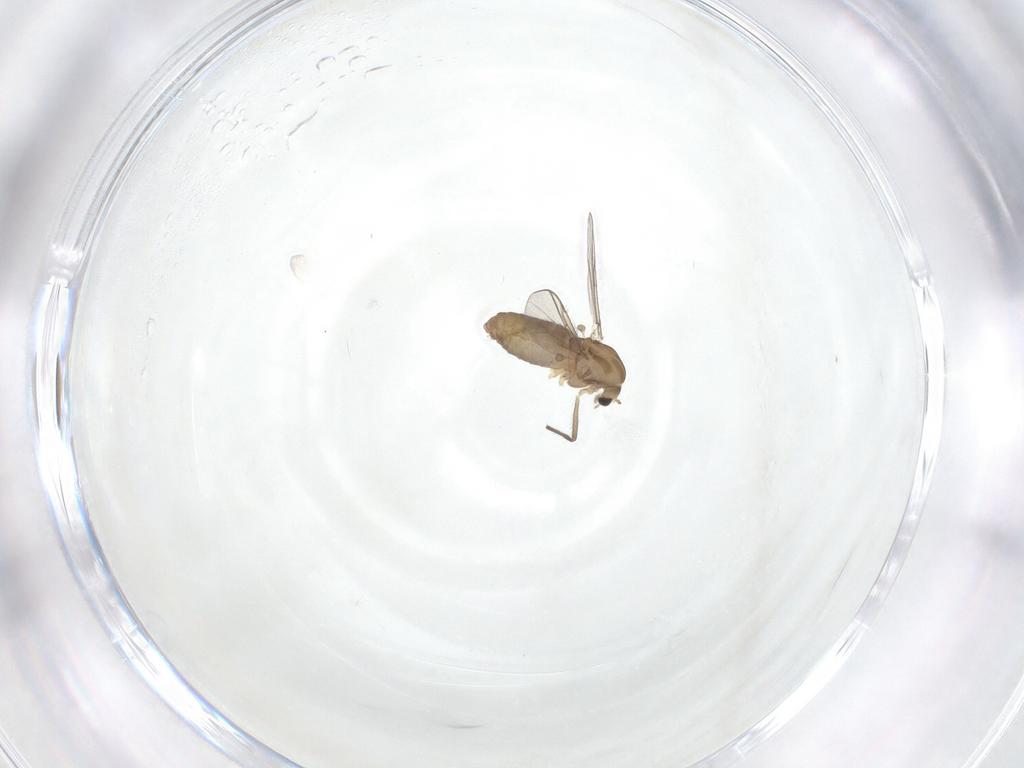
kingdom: Animalia
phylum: Arthropoda
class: Insecta
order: Diptera
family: Chironomidae
